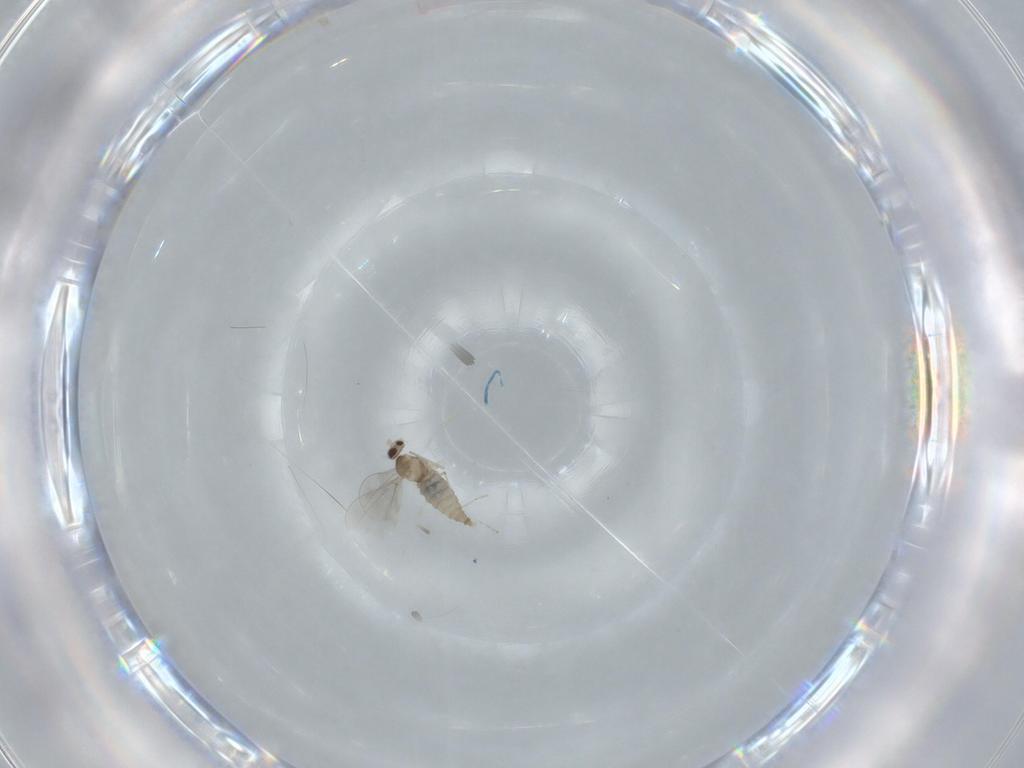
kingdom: Animalia
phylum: Arthropoda
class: Insecta
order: Diptera
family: Cecidomyiidae
